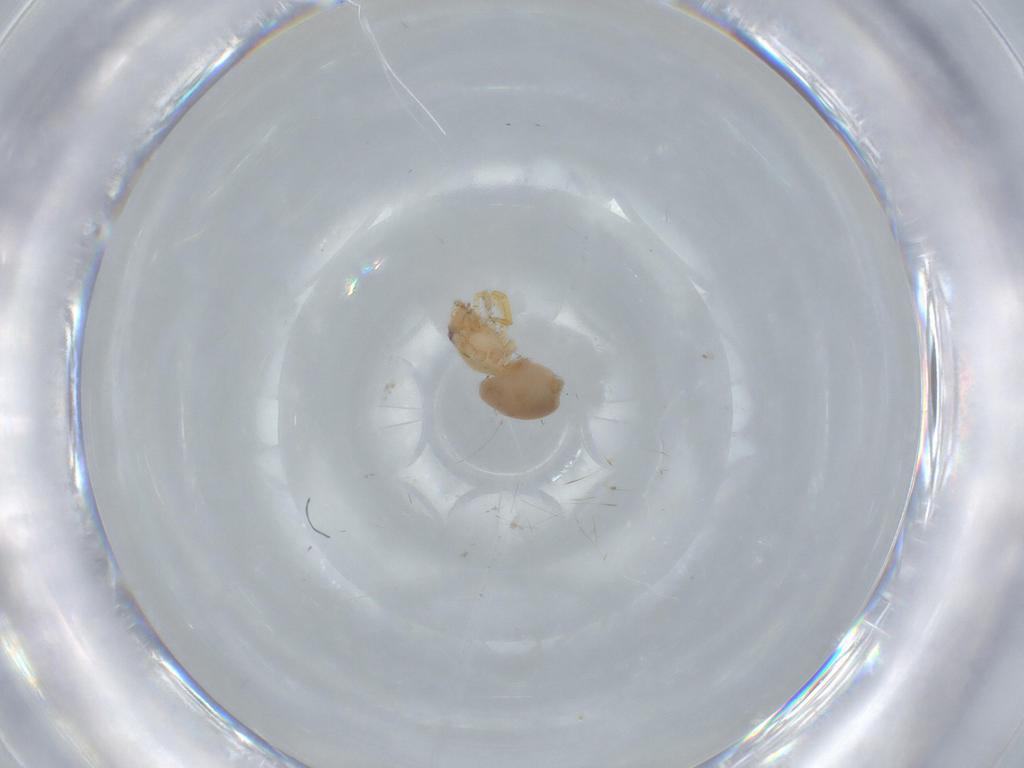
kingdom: Animalia
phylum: Arthropoda
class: Arachnida
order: Araneae
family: Oonopidae
